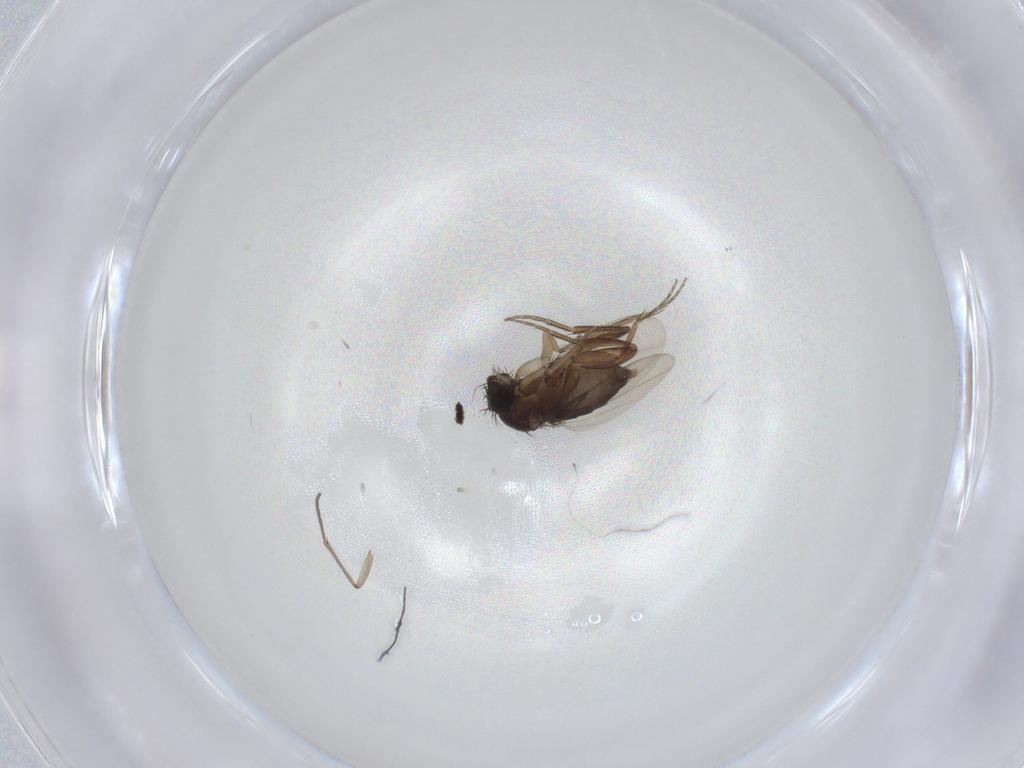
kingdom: Animalia
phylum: Arthropoda
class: Insecta
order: Diptera
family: Phoridae
